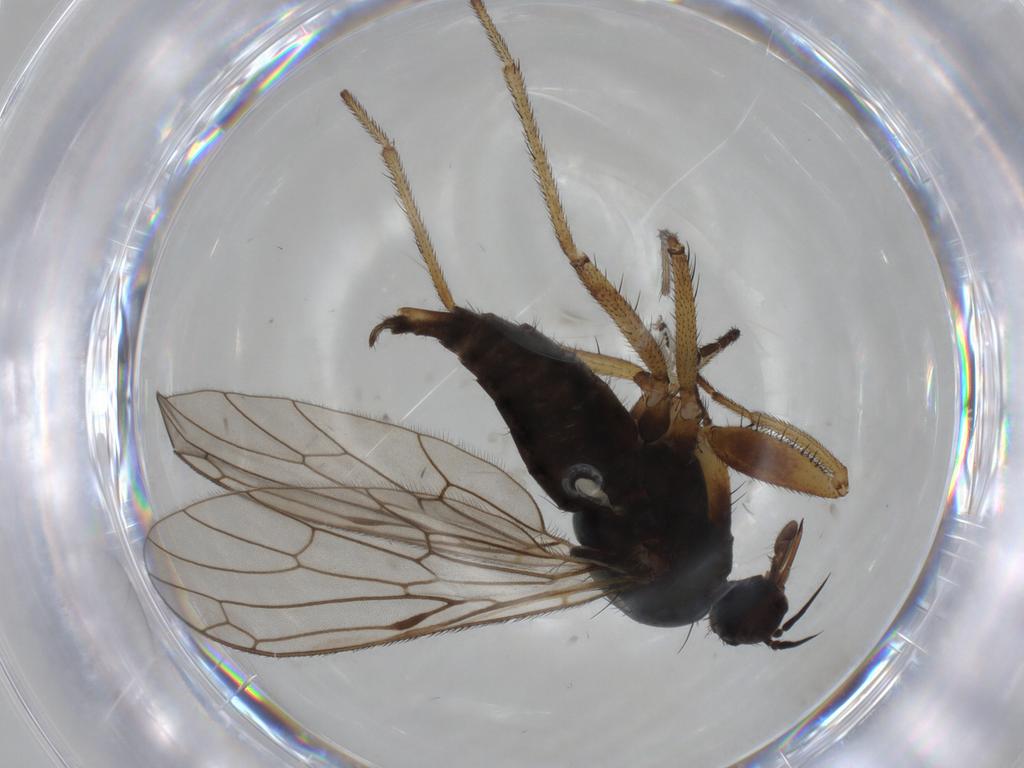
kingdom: Animalia
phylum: Arthropoda
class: Insecta
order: Diptera
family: Empididae
